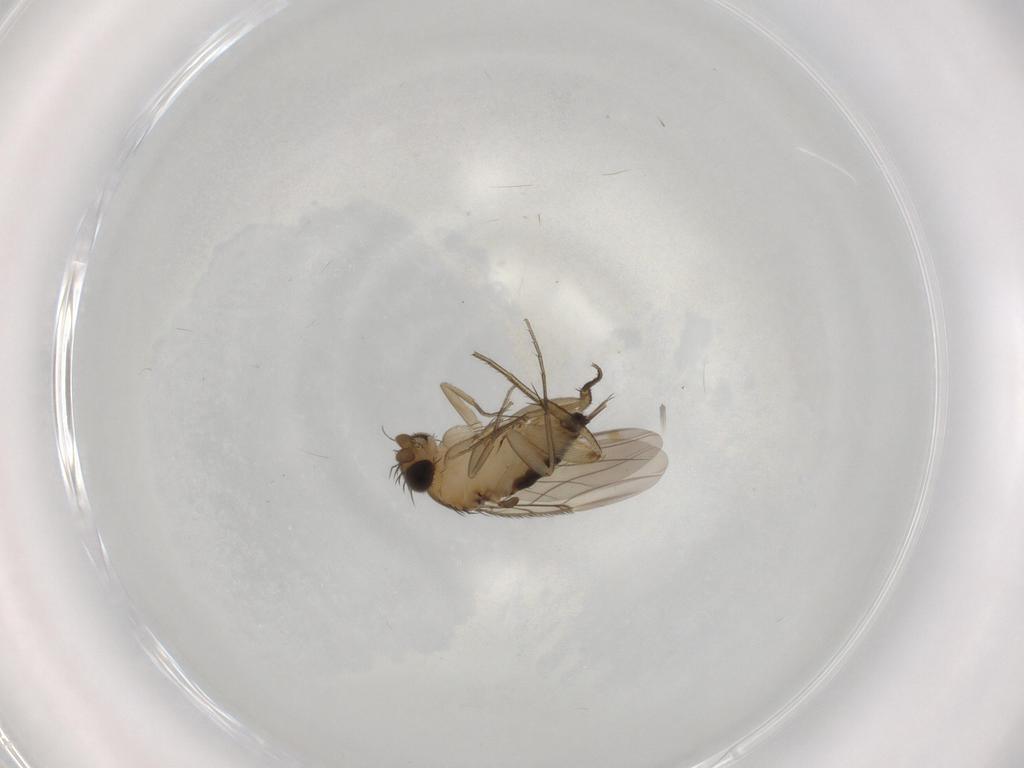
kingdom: Animalia
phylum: Arthropoda
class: Insecta
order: Diptera
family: Phoridae
